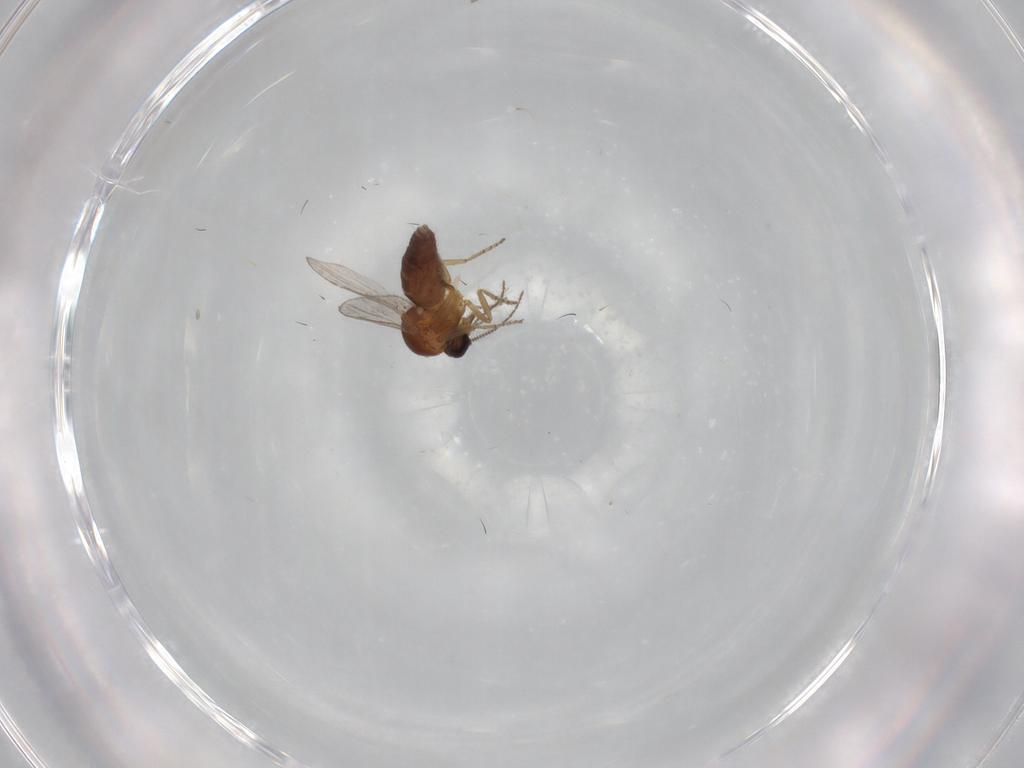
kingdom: Animalia
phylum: Arthropoda
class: Insecta
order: Diptera
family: Ceratopogonidae
